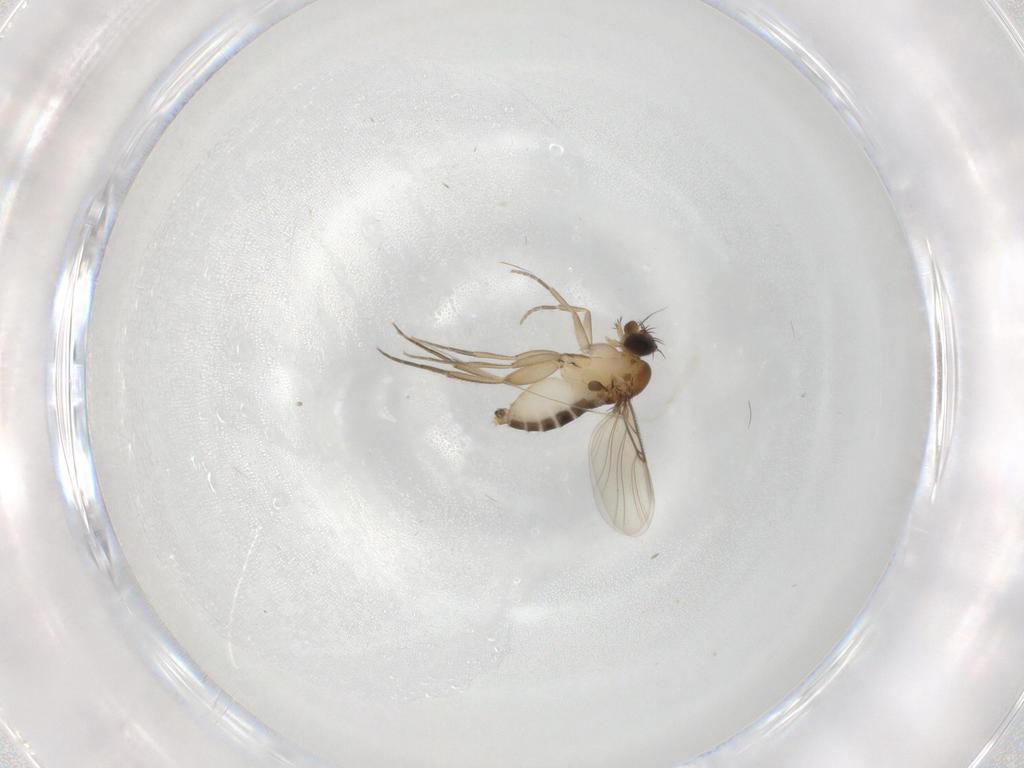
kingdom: Animalia
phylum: Arthropoda
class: Insecta
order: Diptera
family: Phoridae
